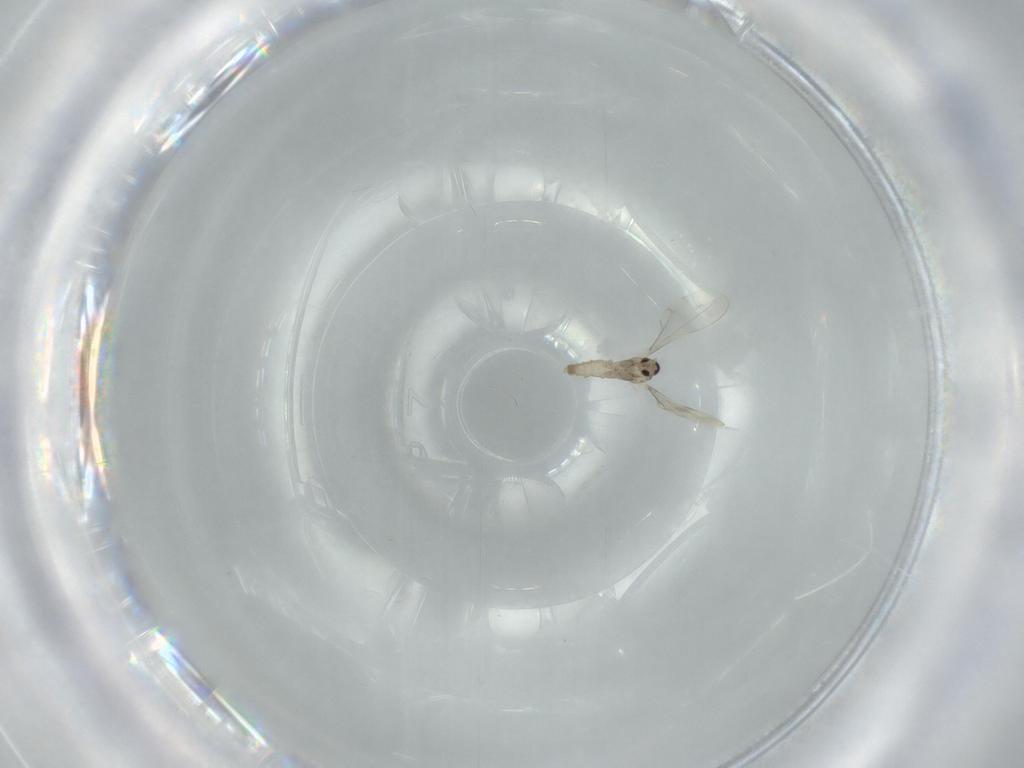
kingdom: Animalia
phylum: Arthropoda
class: Insecta
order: Diptera
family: Cecidomyiidae
